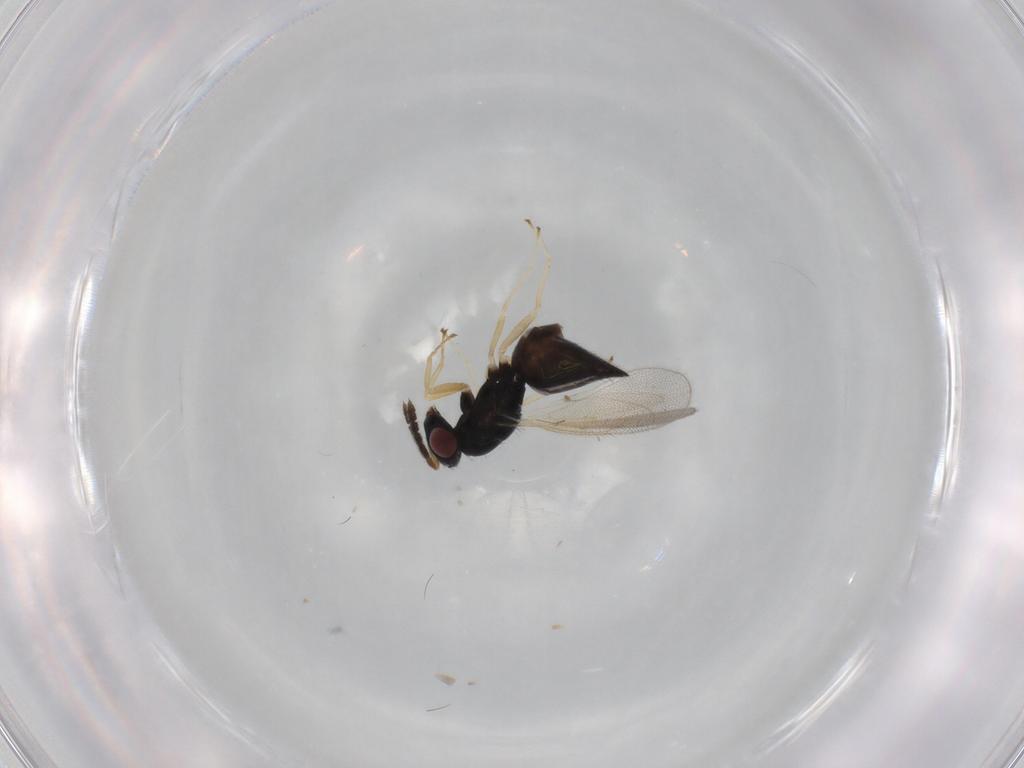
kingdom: Animalia
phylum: Arthropoda
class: Insecta
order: Hymenoptera
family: Eulophidae
